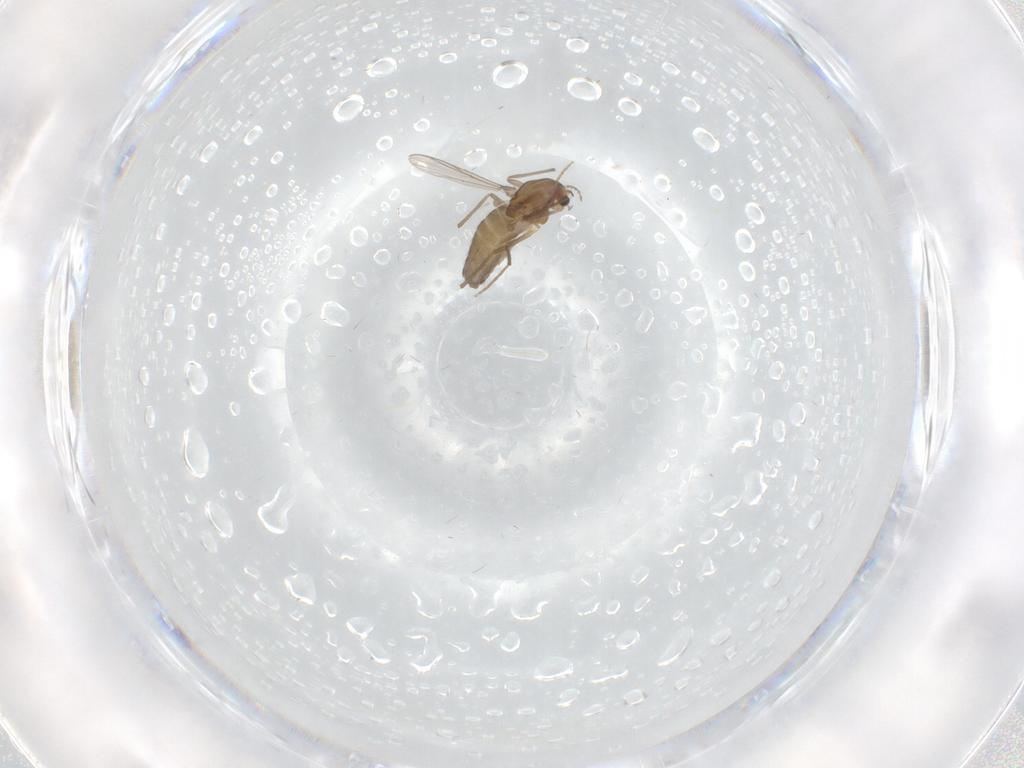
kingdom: Animalia
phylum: Arthropoda
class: Insecta
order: Diptera
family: Chironomidae
